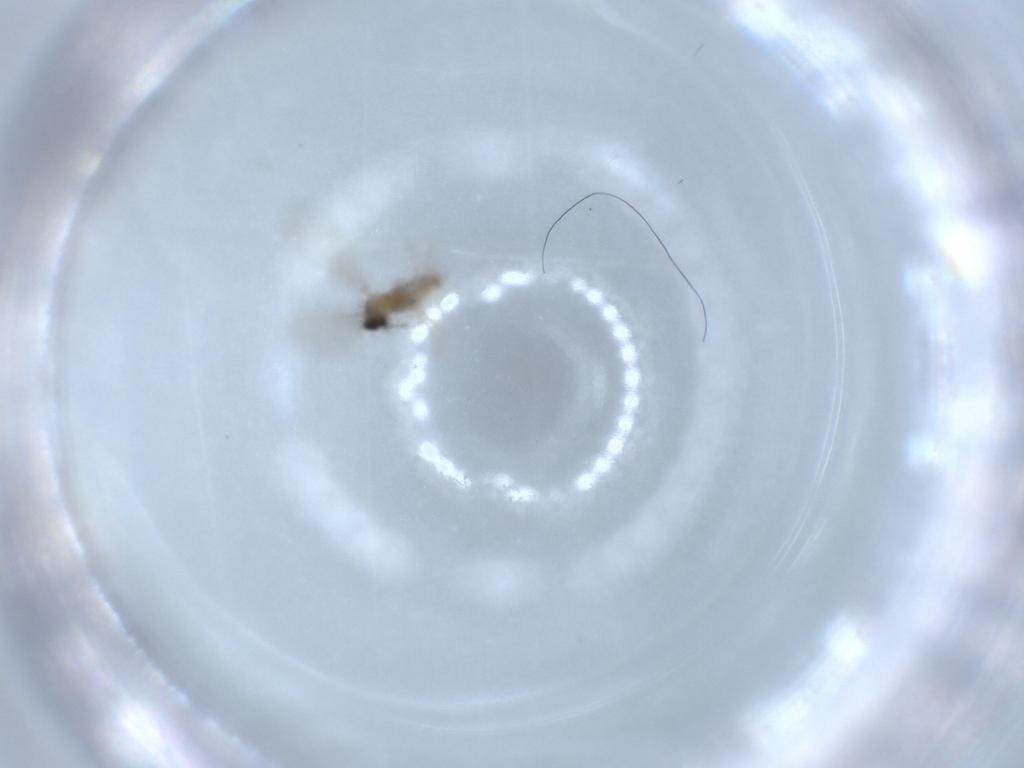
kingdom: Animalia
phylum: Arthropoda
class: Insecta
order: Diptera
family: Cecidomyiidae
